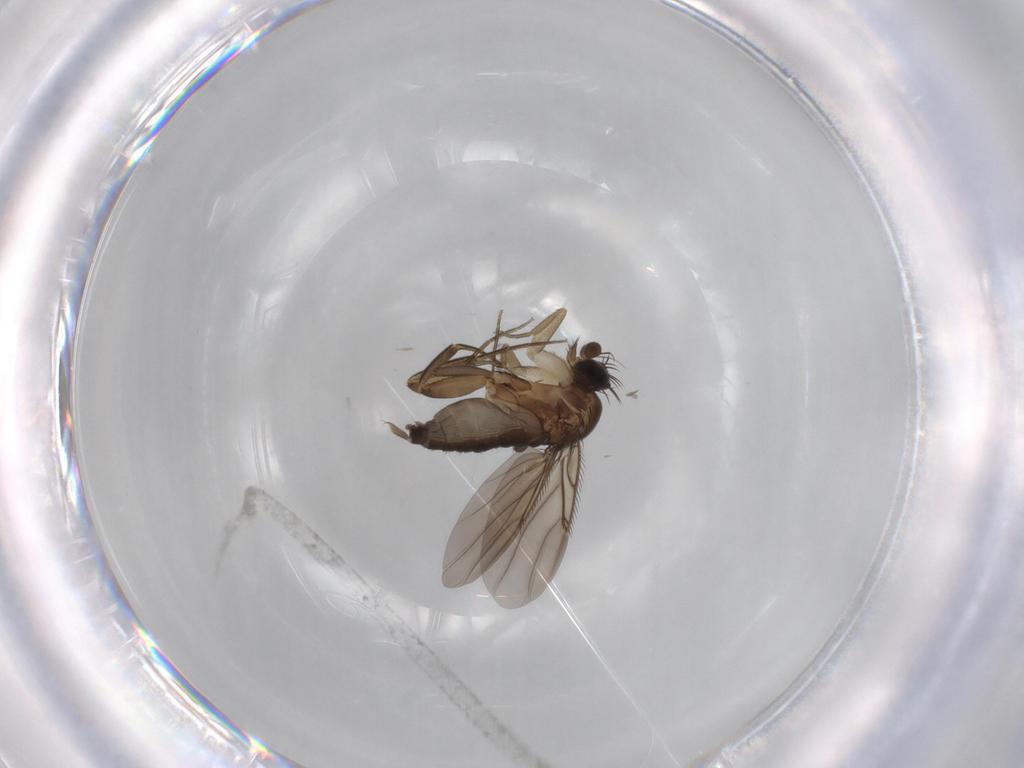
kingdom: Animalia
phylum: Arthropoda
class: Insecta
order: Diptera
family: Phoridae
